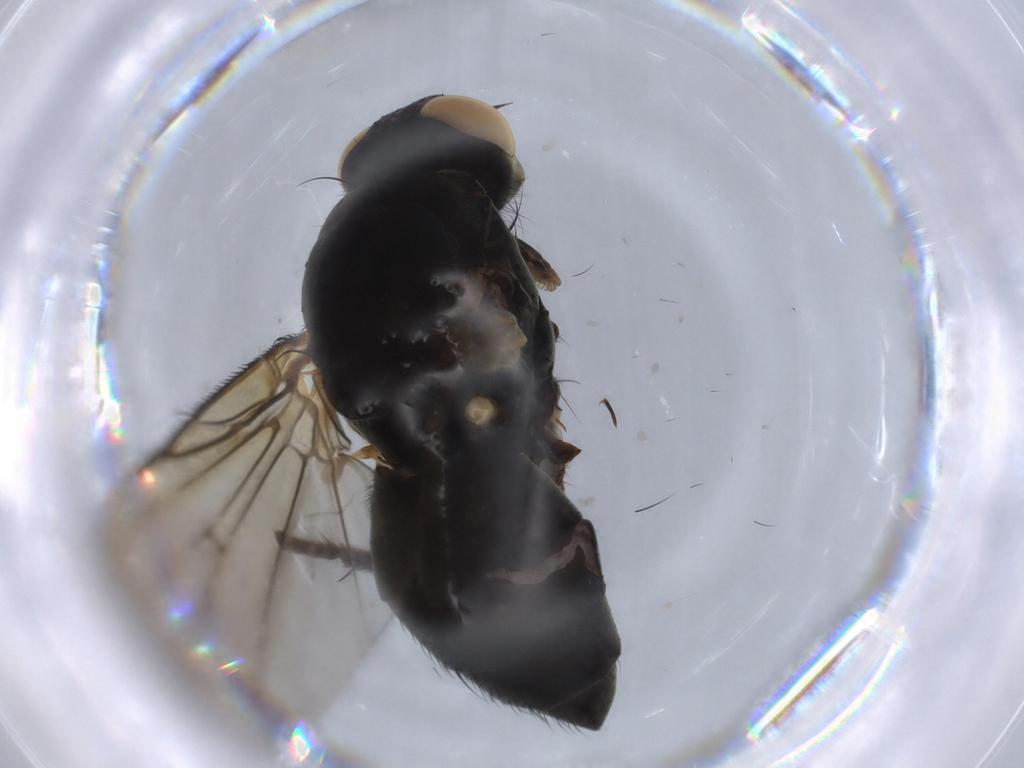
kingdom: Animalia
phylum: Arthropoda
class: Insecta
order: Diptera
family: Anthomyiidae
